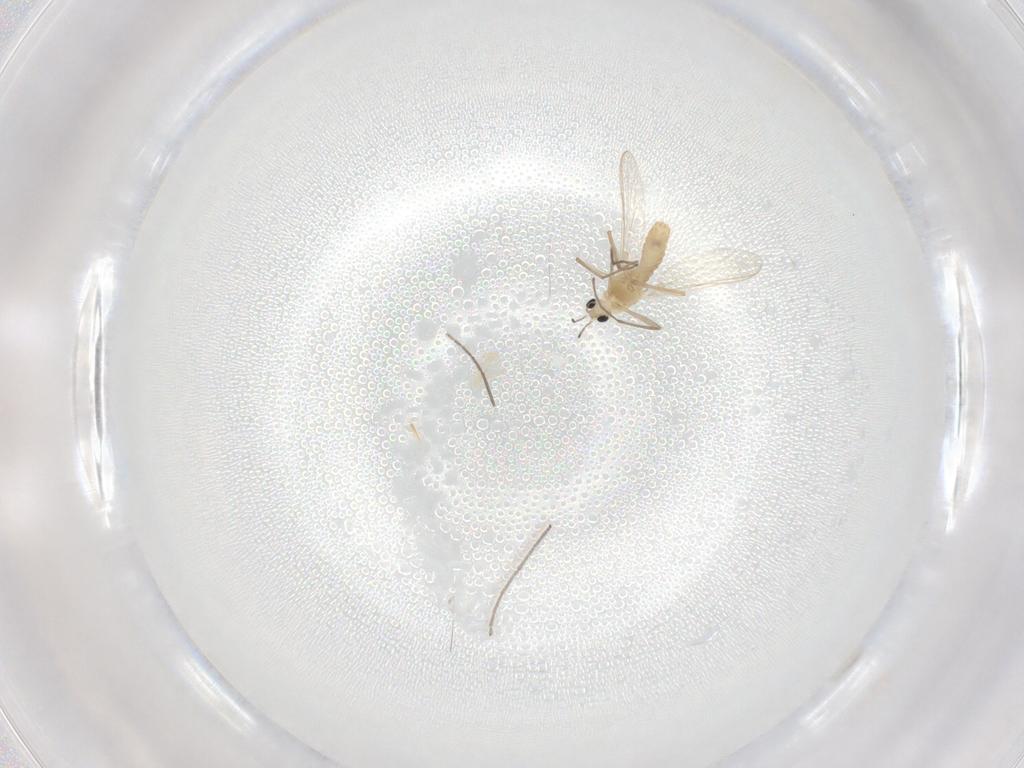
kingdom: Animalia
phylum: Arthropoda
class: Insecta
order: Diptera
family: Chironomidae
